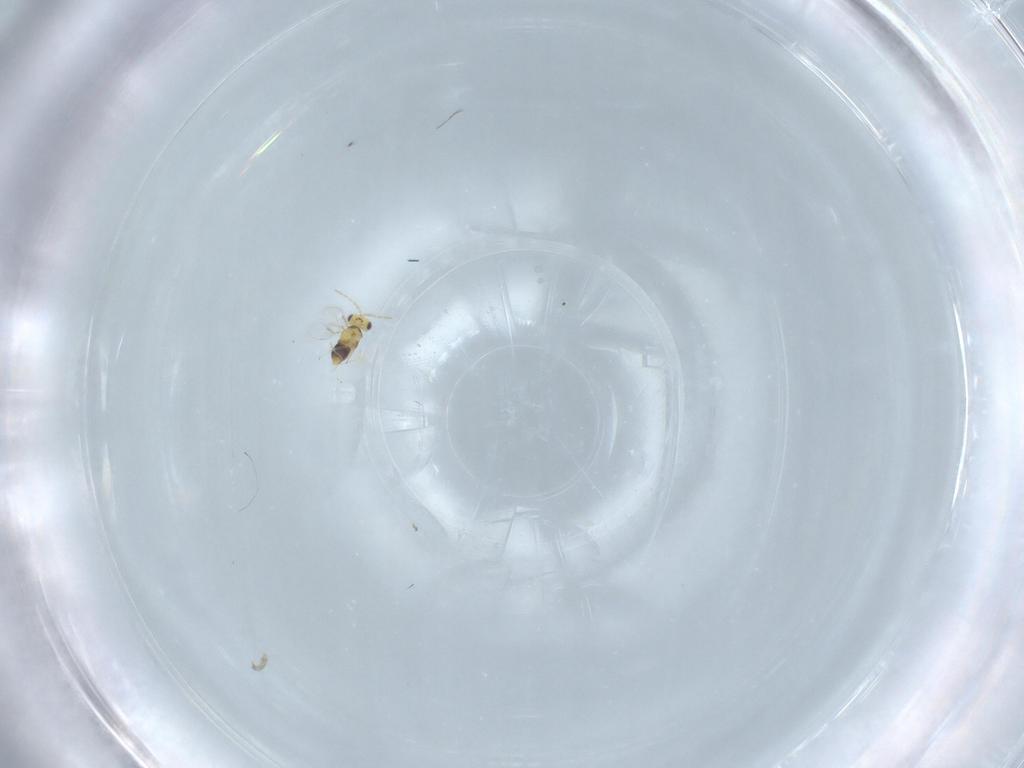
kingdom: Animalia
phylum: Arthropoda
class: Insecta
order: Hymenoptera
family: Aphelinidae
